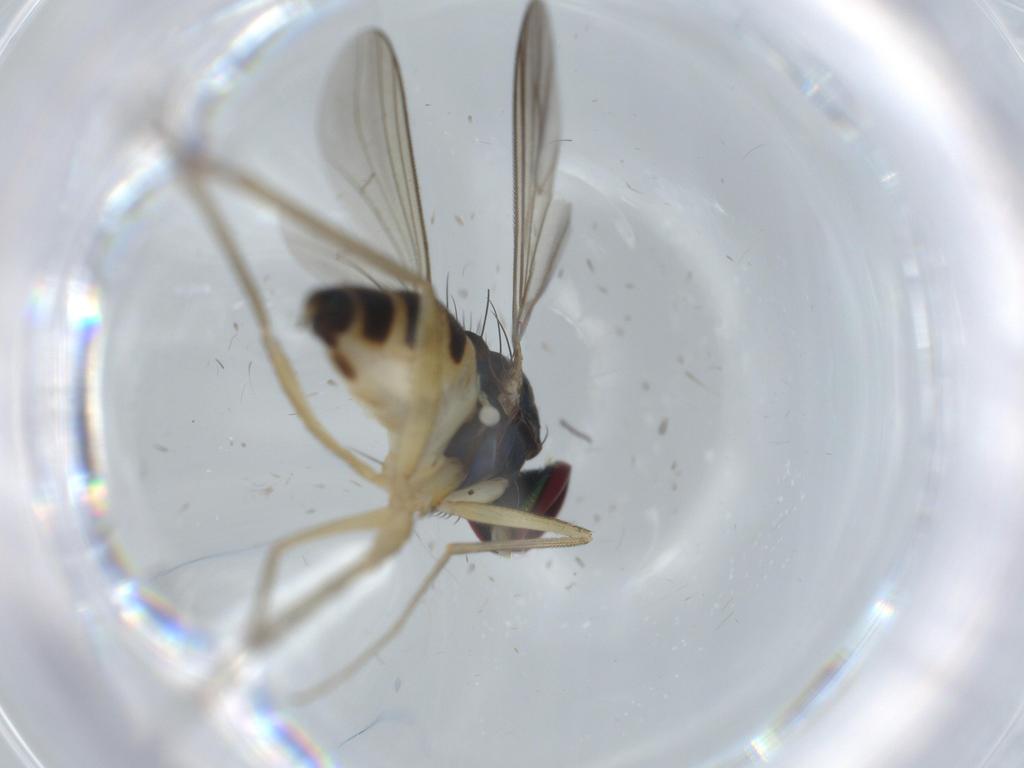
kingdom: Animalia
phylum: Arthropoda
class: Insecta
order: Diptera
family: Dolichopodidae
